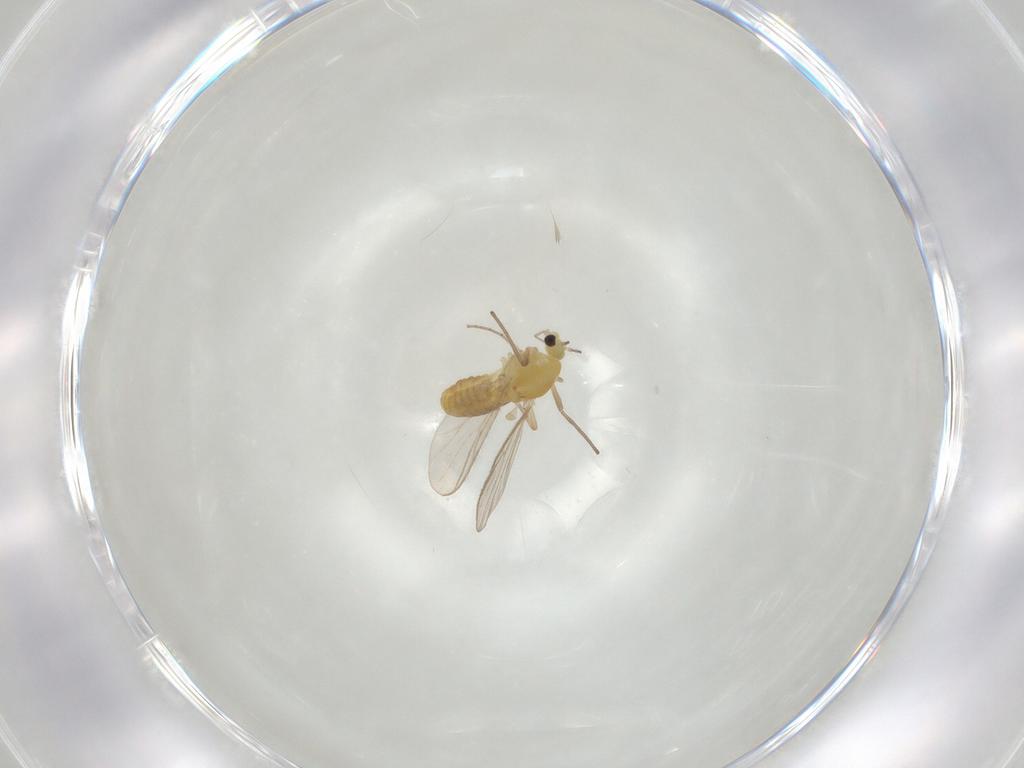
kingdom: Animalia
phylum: Arthropoda
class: Insecta
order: Diptera
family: Chironomidae
